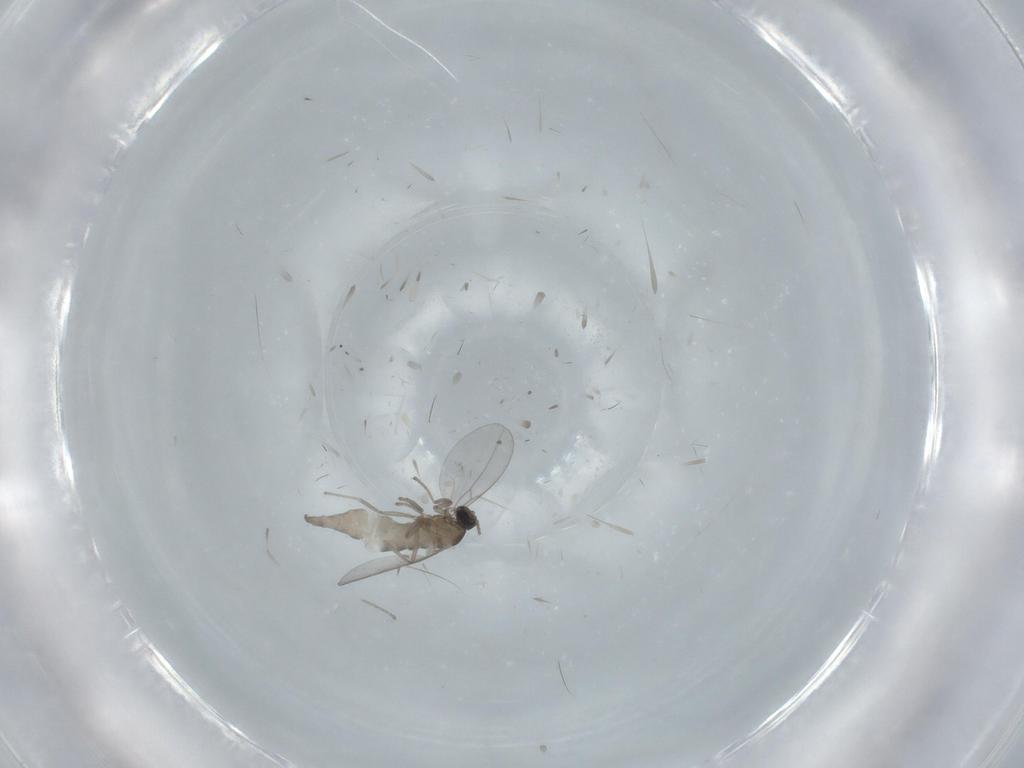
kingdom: Animalia
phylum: Arthropoda
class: Insecta
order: Diptera
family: Cecidomyiidae
